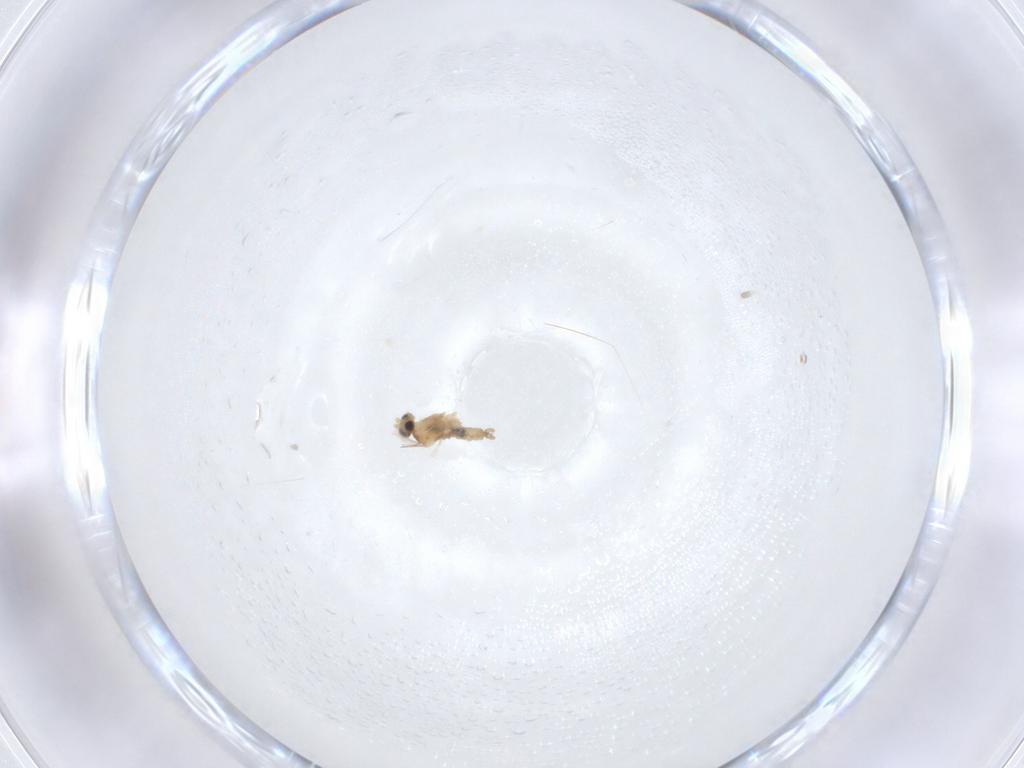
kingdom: Animalia
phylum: Arthropoda
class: Insecta
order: Diptera
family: Cecidomyiidae
